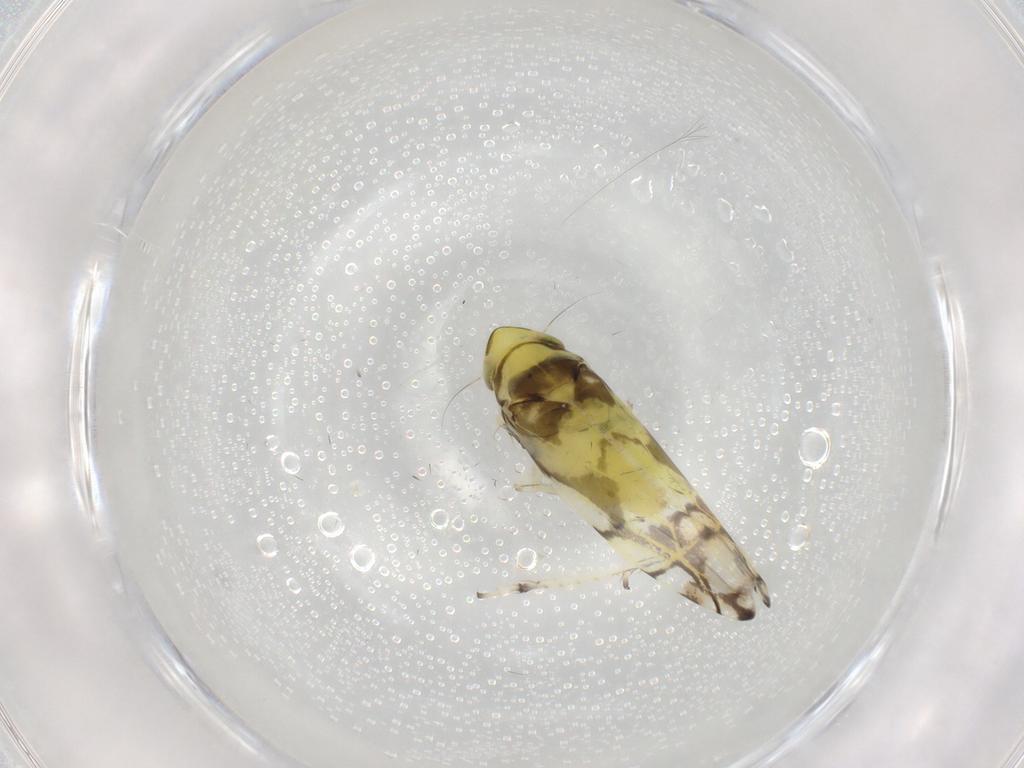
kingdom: Animalia
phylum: Arthropoda
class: Insecta
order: Hemiptera
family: Cicadellidae
